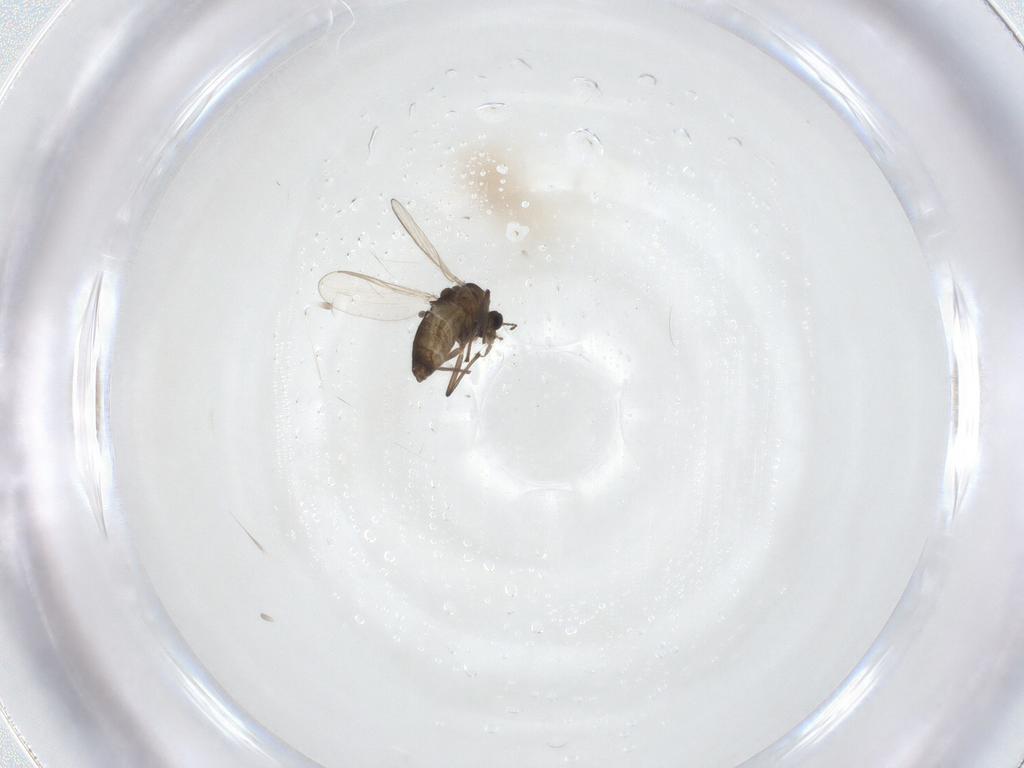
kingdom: Animalia
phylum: Arthropoda
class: Insecta
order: Diptera
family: Chironomidae
